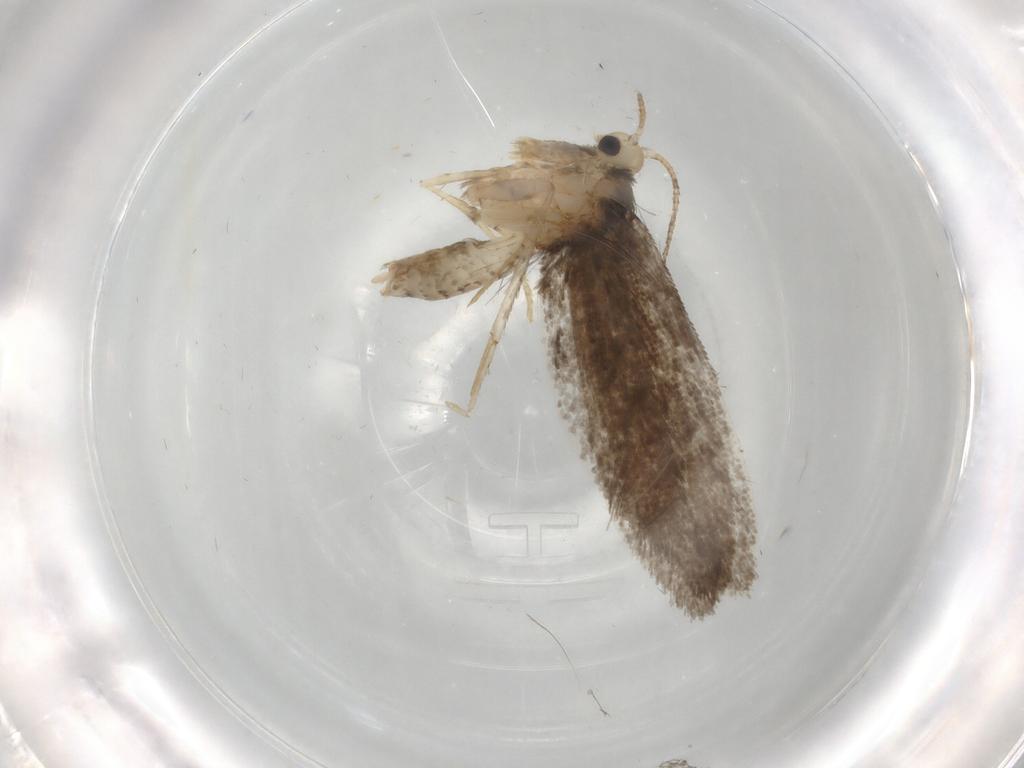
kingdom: Animalia
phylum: Arthropoda
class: Insecta
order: Lepidoptera
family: Psychidae
